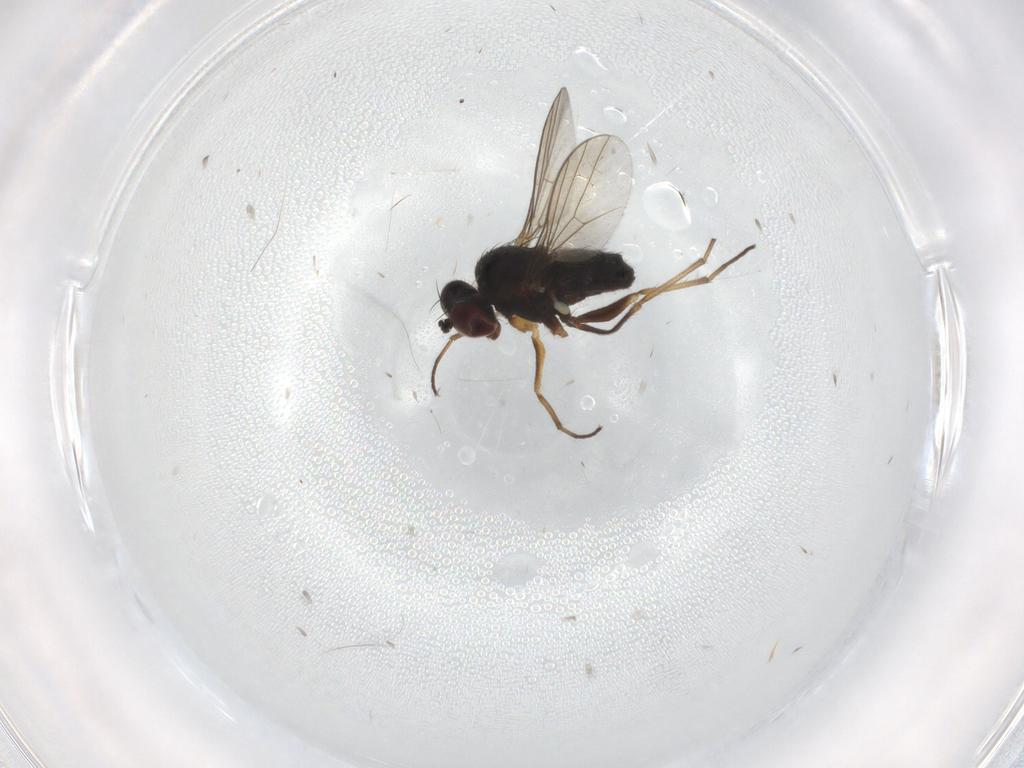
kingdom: Animalia
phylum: Arthropoda
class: Insecta
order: Diptera
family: Dolichopodidae
